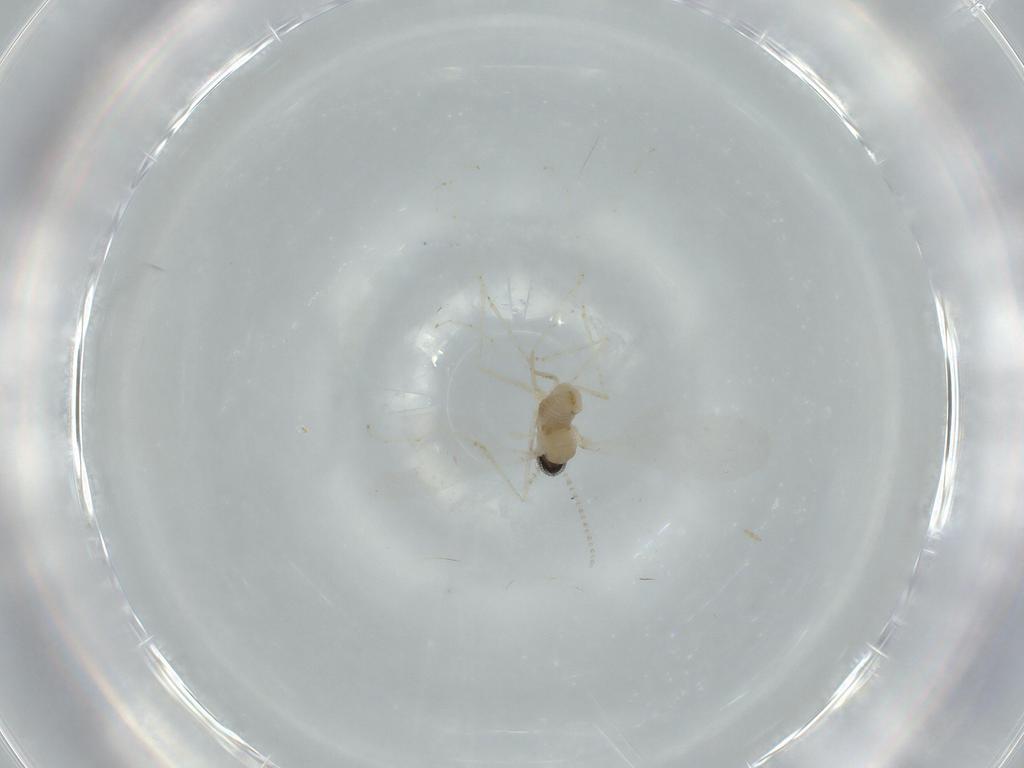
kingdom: Animalia
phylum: Arthropoda
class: Insecta
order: Diptera
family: Cecidomyiidae
